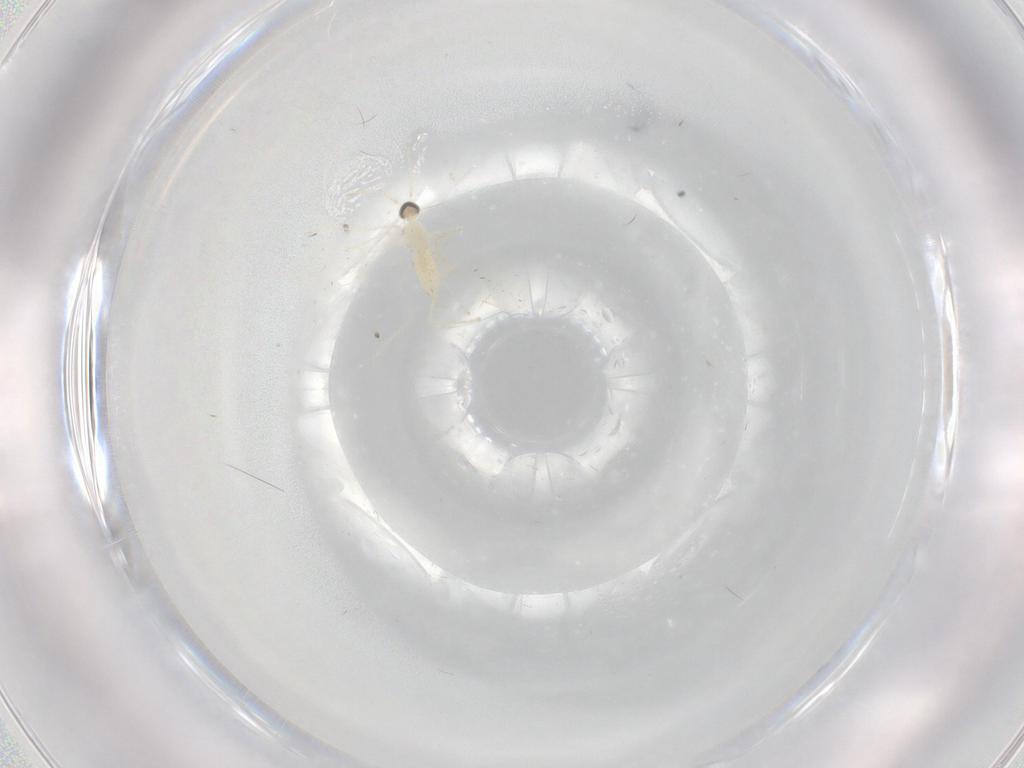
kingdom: Animalia
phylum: Arthropoda
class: Insecta
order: Diptera
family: Cecidomyiidae
